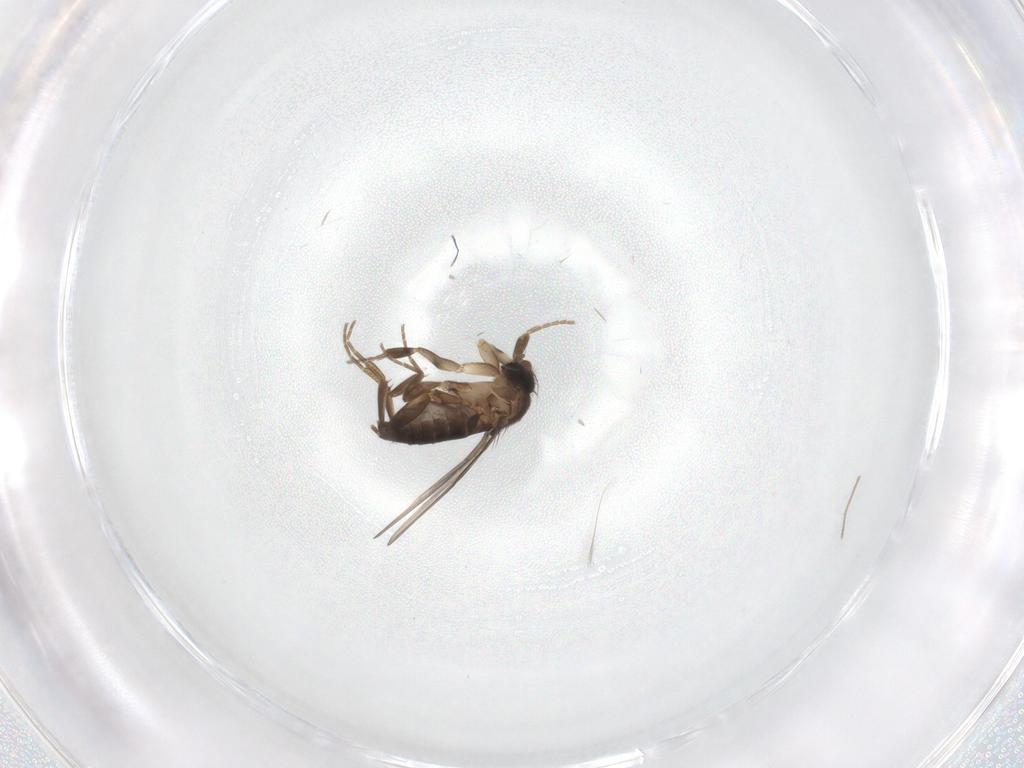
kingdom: Animalia
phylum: Arthropoda
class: Insecta
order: Diptera
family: Phoridae
